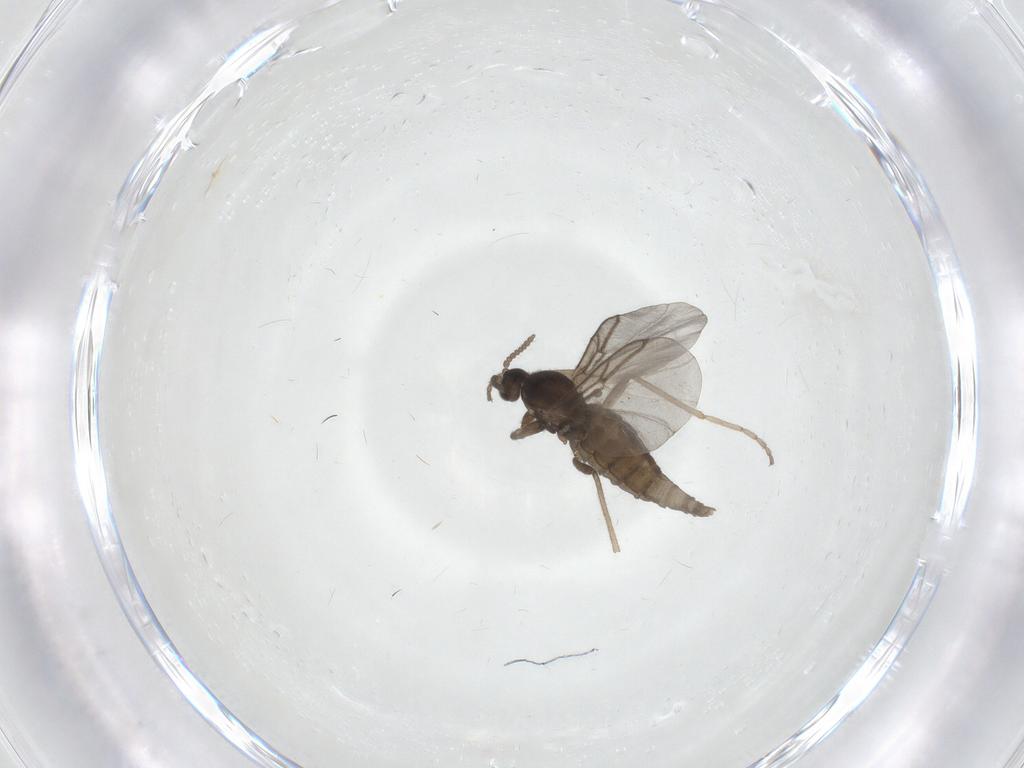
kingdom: Animalia
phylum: Arthropoda
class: Insecta
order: Diptera
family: Cecidomyiidae
